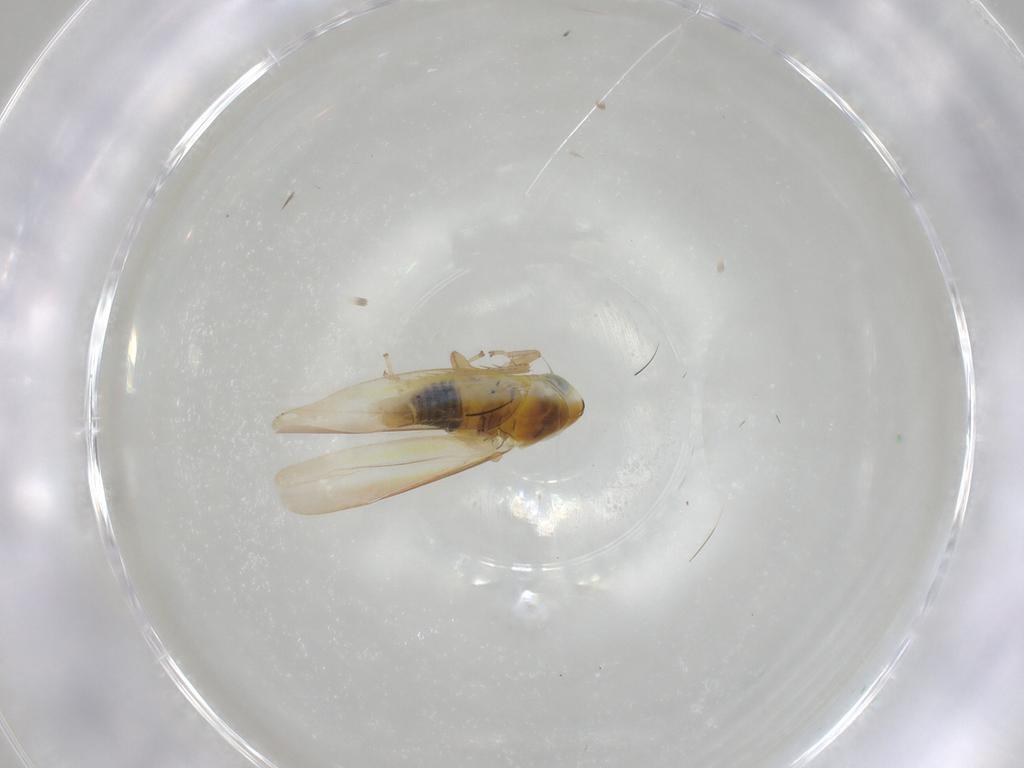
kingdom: Animalia
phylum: Arthropoda
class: Insecta
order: Hemiptera
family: Cicadellidae
